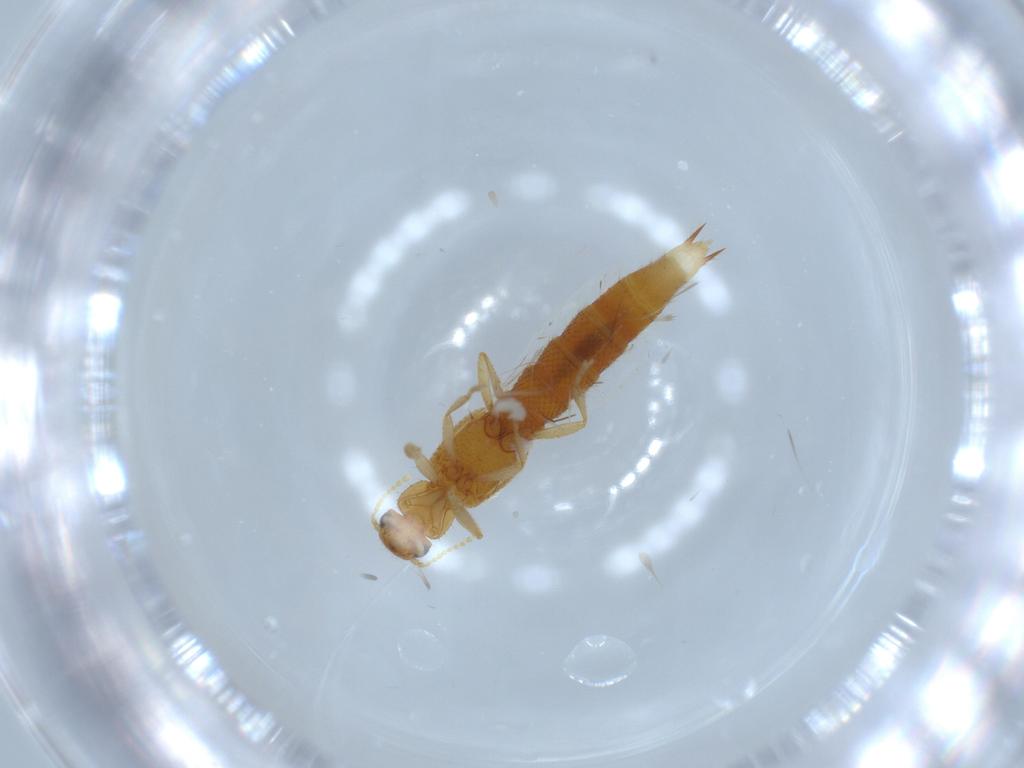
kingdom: Animalia
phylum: Arthropoda
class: Insecta
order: Coleoptera
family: Staphylinidae
